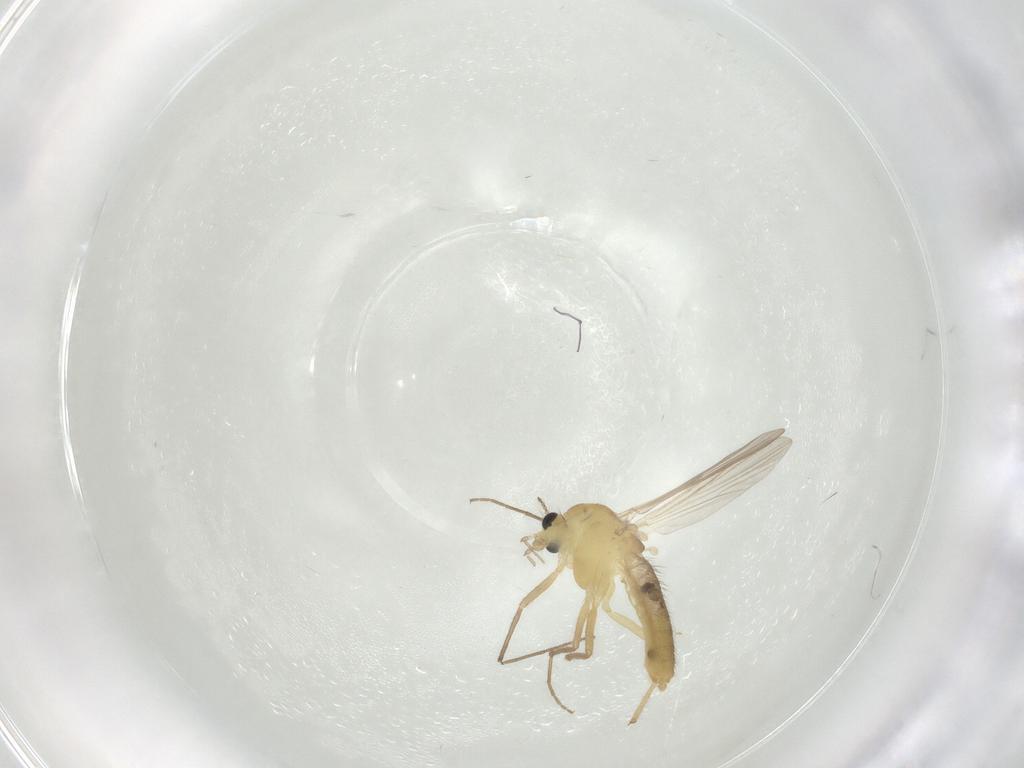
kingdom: Animalia
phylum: Arthropoda
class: Insecta
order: Diptera
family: Chironomidae
